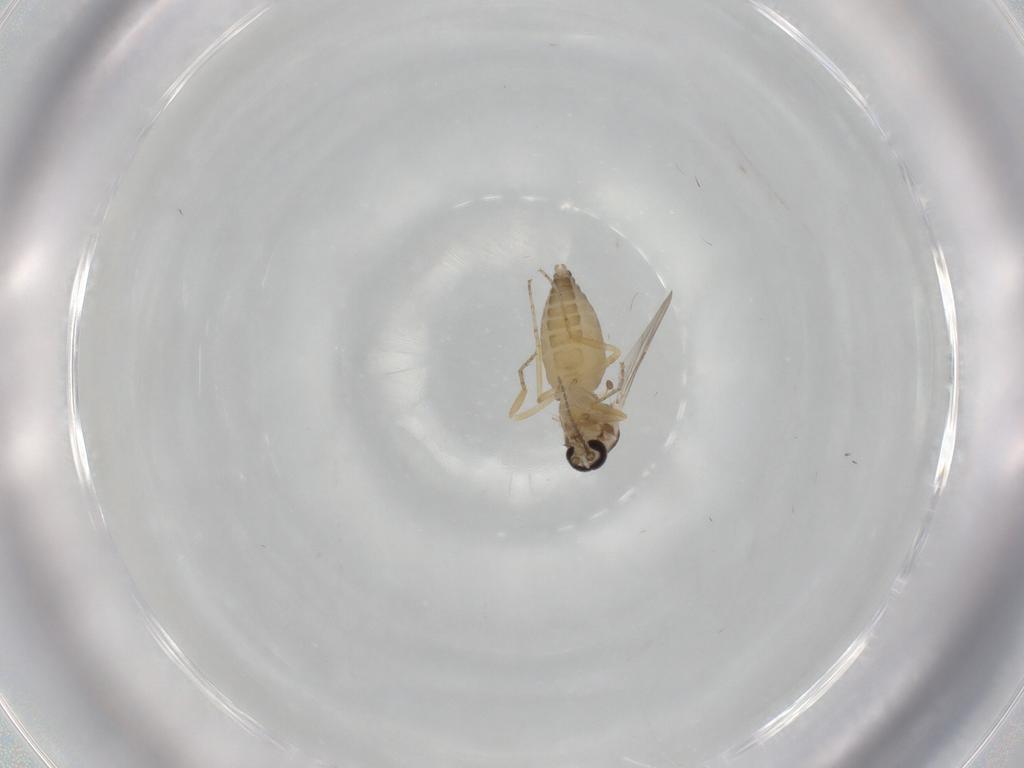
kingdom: Animalia
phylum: Arthropoda
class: Insecta
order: Diptera
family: Ceratopogonidae
